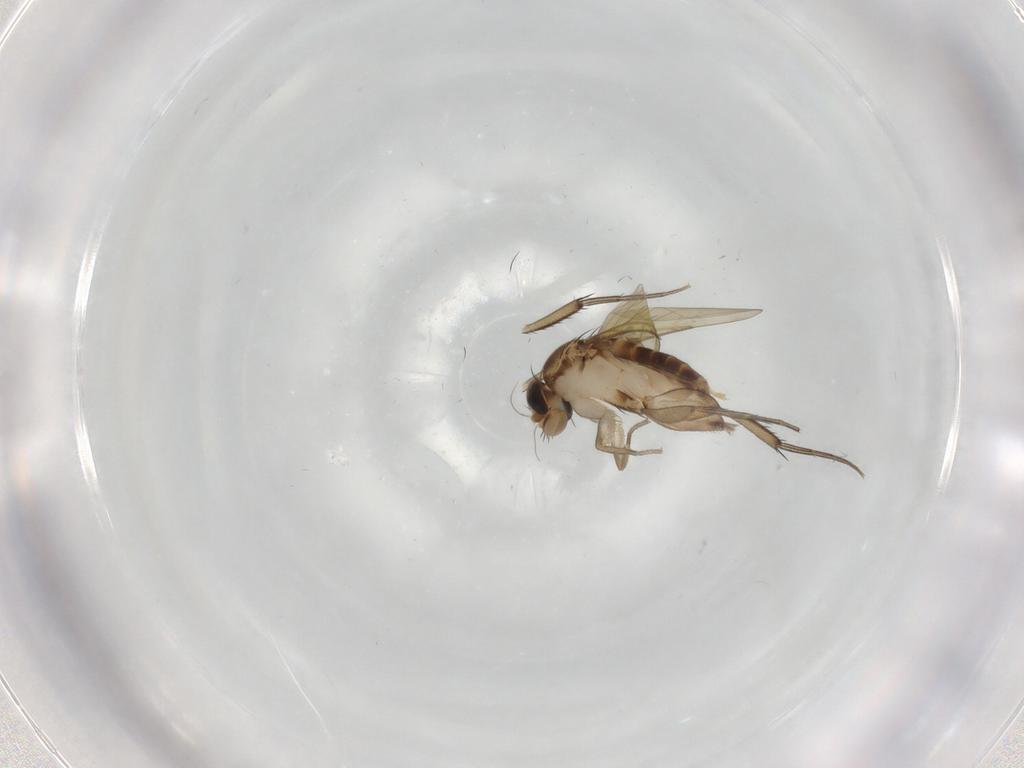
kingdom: Animalia
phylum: Arthropoda
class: Insecta
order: Diptera
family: Phoridae
